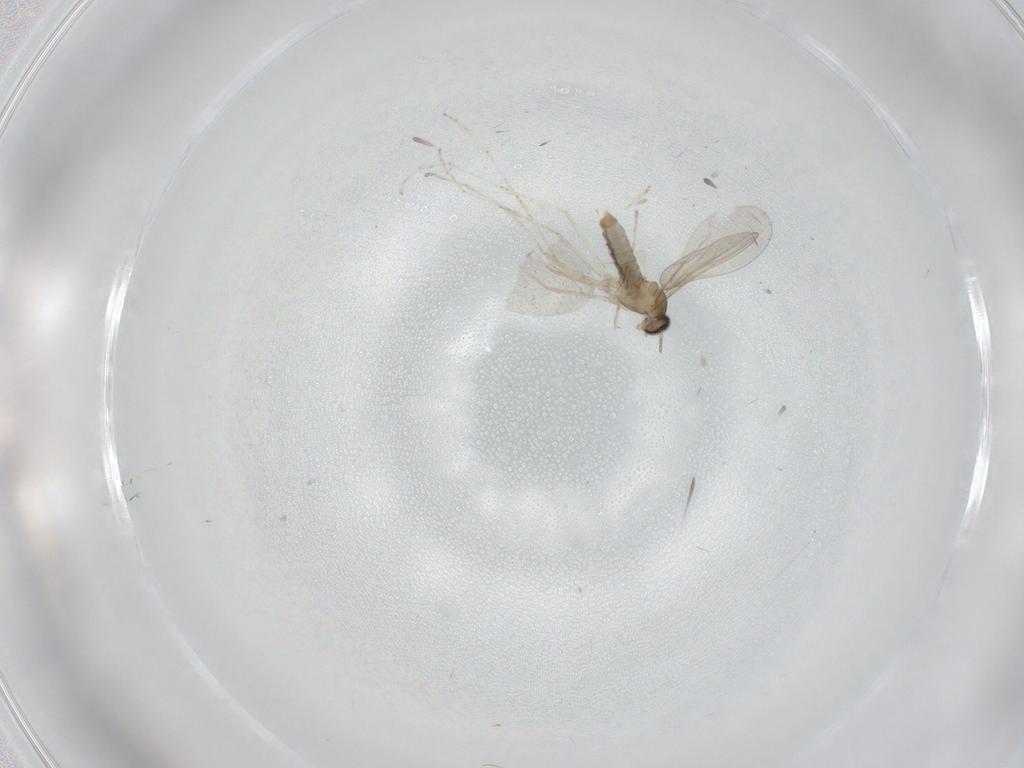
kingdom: Animalia
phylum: Arthropoda
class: Insecta
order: Diptera
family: Cecidomyiidae
